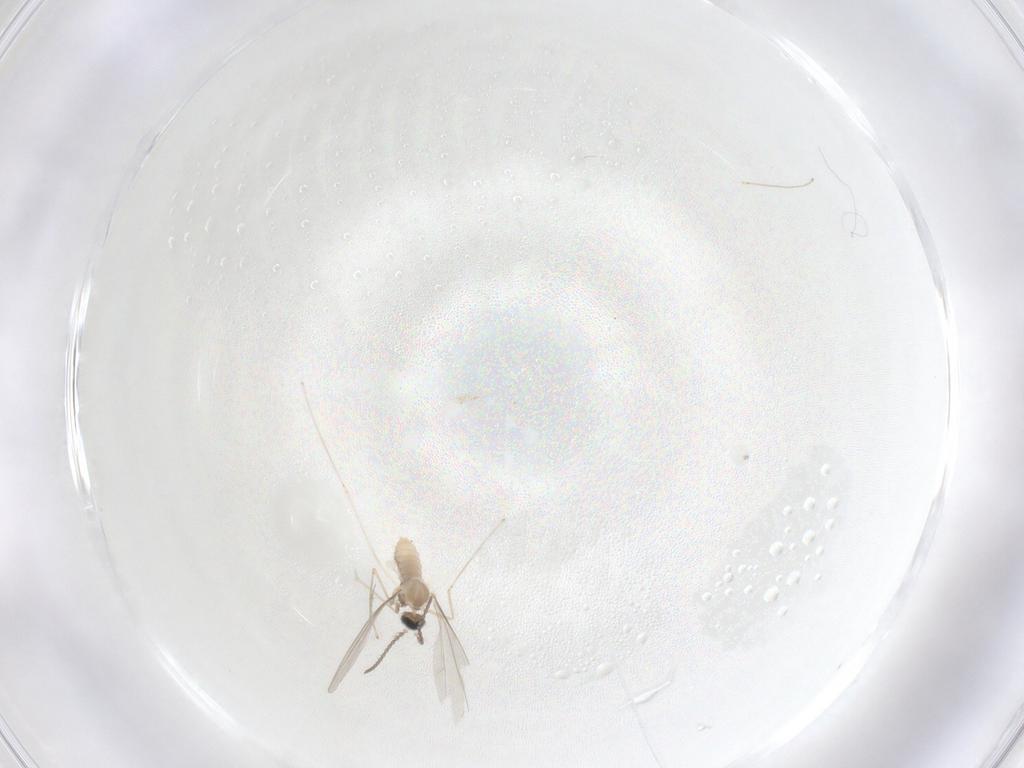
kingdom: Animalia
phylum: Arthropoda
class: Insecta
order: Diptera
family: Cecidomyiidae
